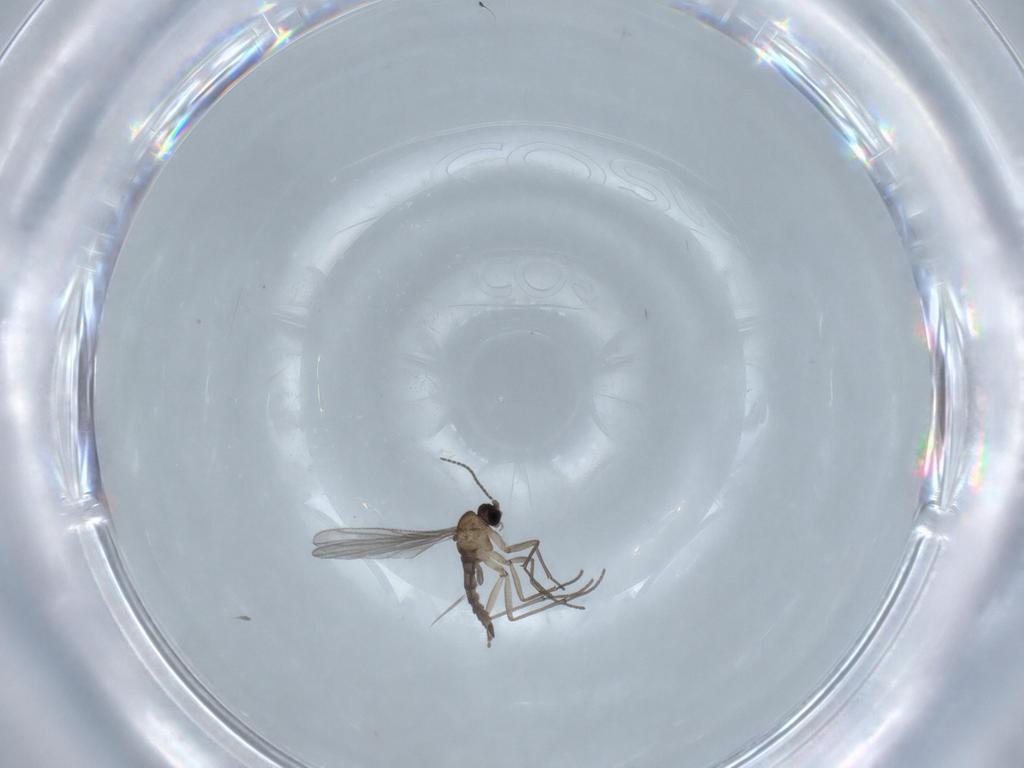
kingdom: Animalia
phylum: Arthropoda
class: Insecta
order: Diptera
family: Sciaridae
